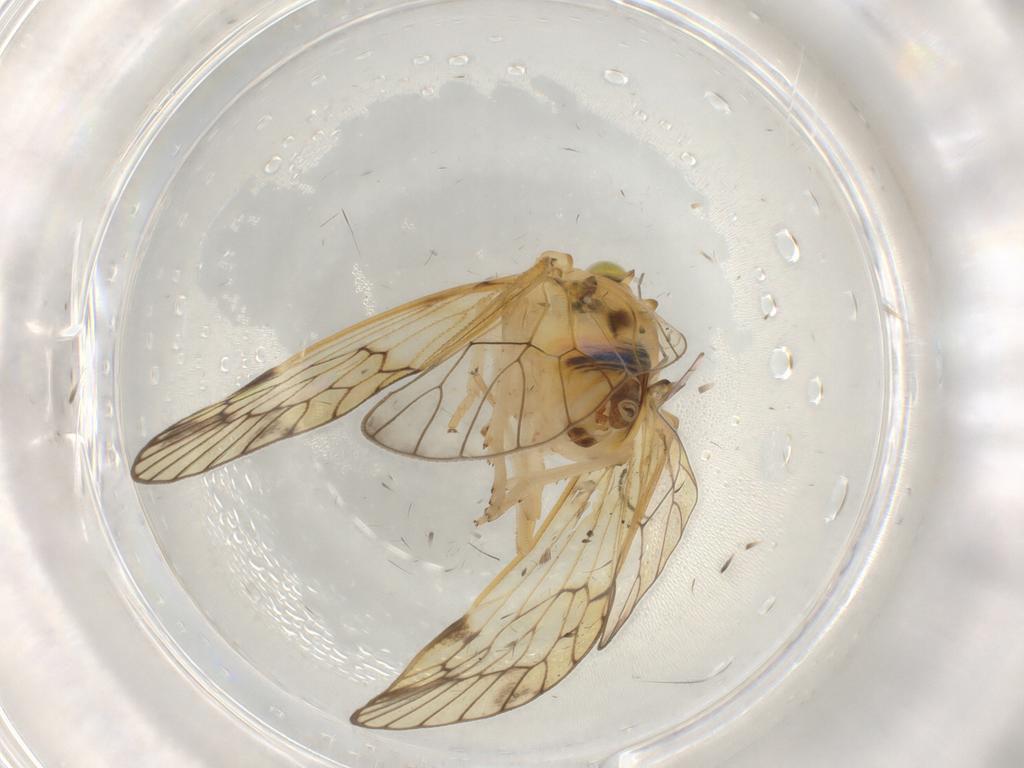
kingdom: Animalia
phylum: Arthropoda
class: Insecta
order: Hemiptera
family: Cixiidae
